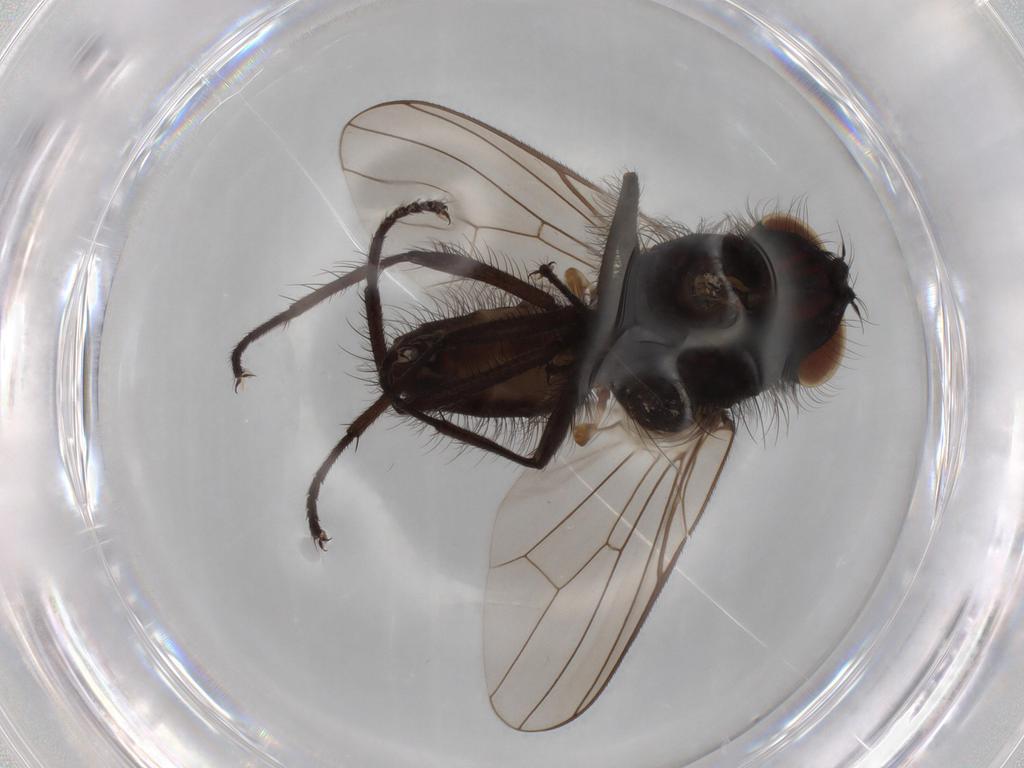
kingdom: Animalia
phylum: Arthropoda
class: Insecta
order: Diptera
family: Anthomyiidae
